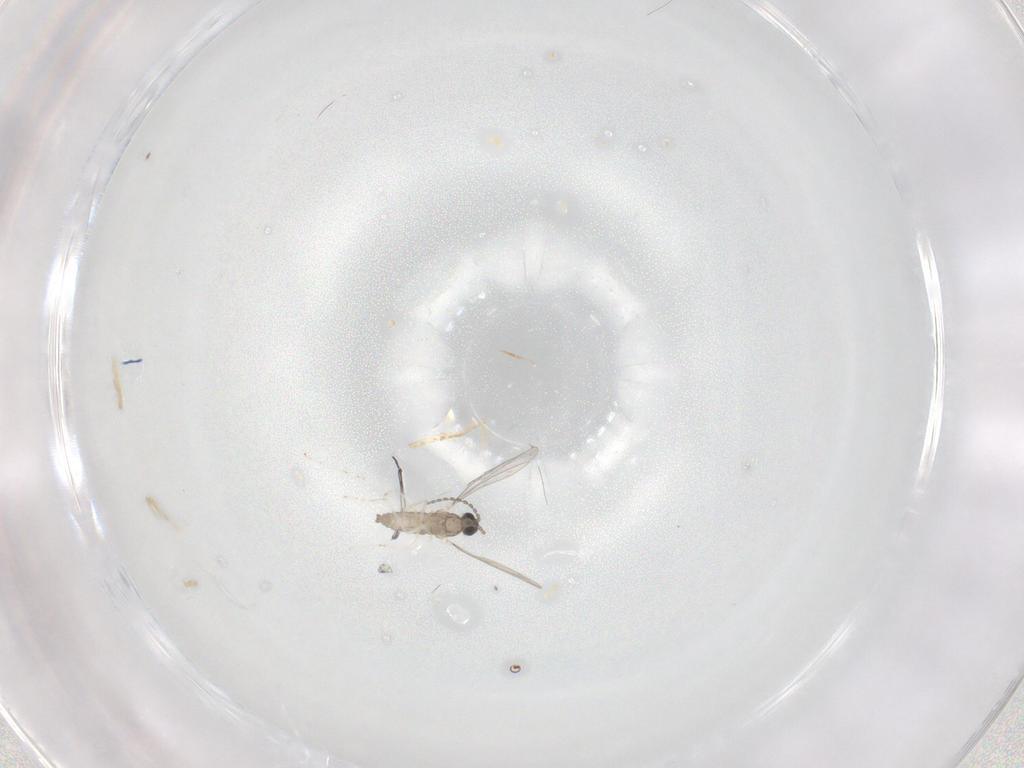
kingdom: Animalia
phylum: Arthropoda
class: Insecta
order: Diptera
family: Cecidomyiidae
